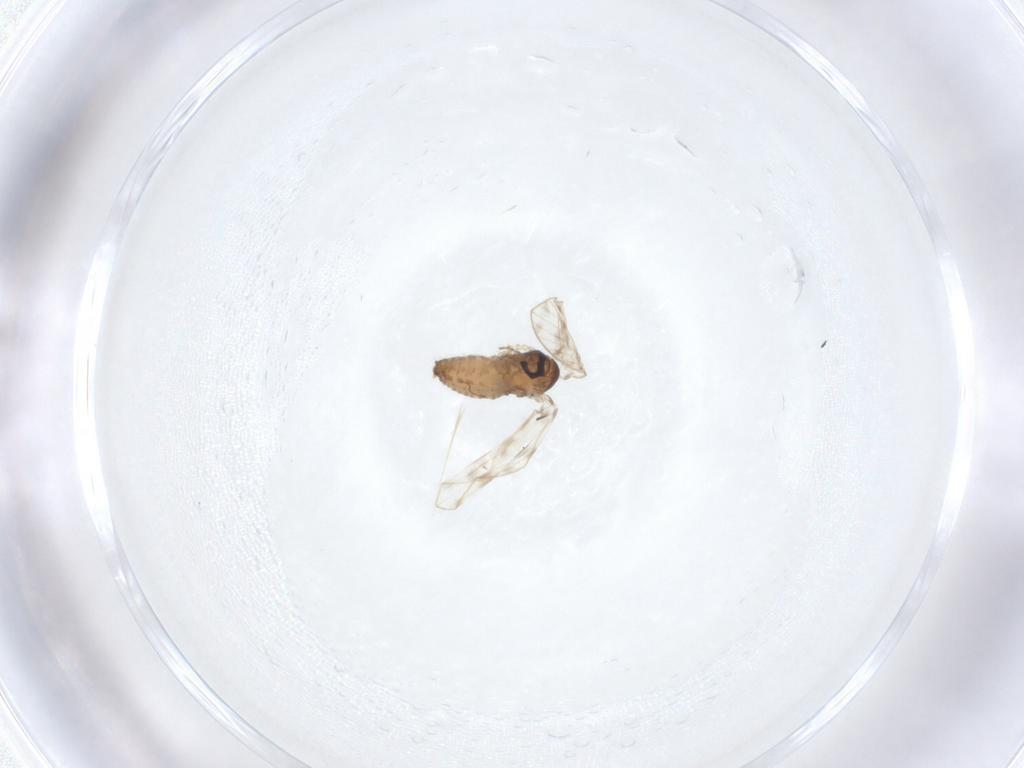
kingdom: Animalia
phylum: Arthropoda
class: Insecta
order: Diptera
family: Psychodidae
